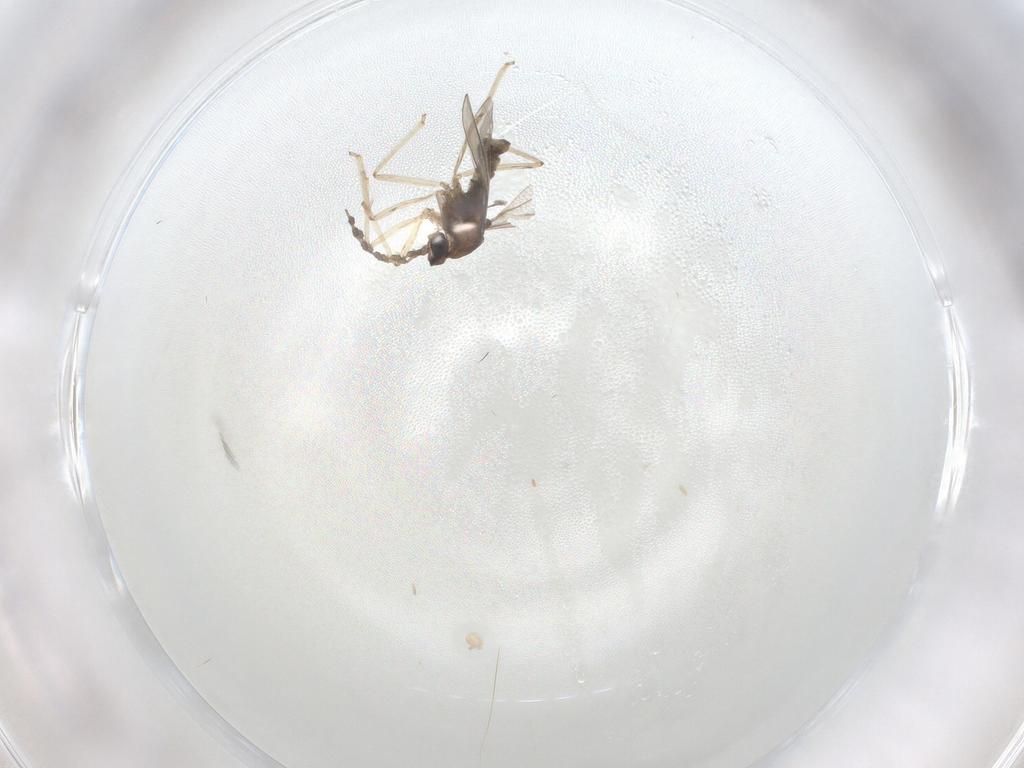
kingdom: Animalia
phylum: Arthropoda
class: Insecta
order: Diptera
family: Cecidomyiidae
